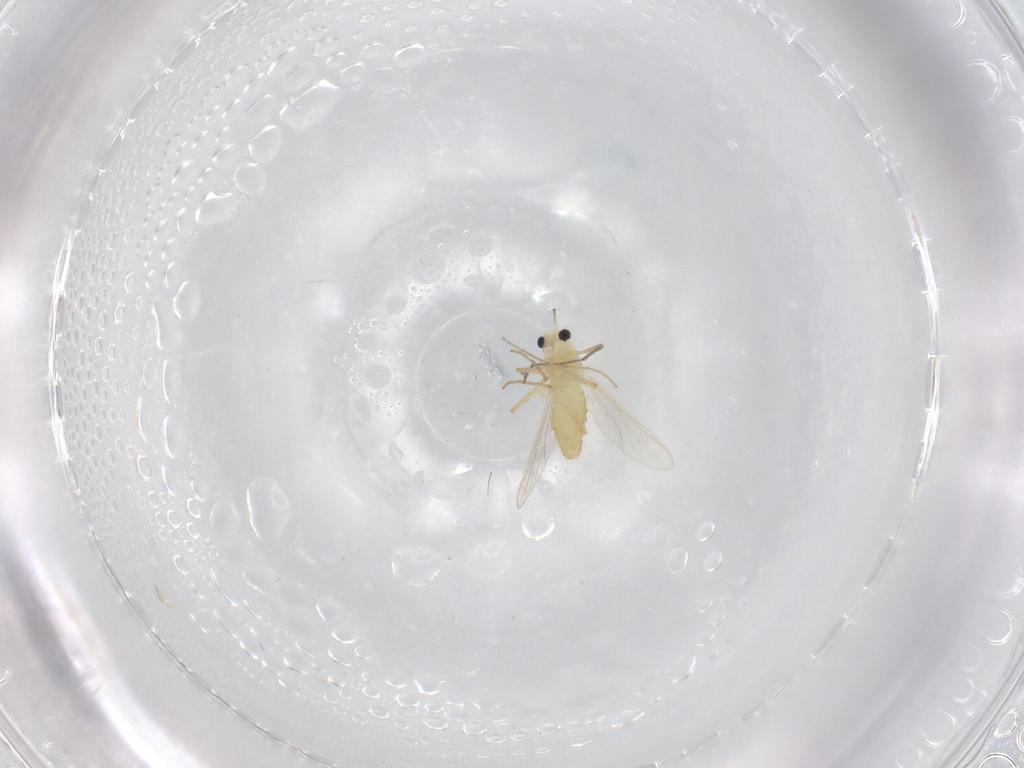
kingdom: Animalia
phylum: Arthropoda
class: Insecta
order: Diptera
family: Chironomidae
